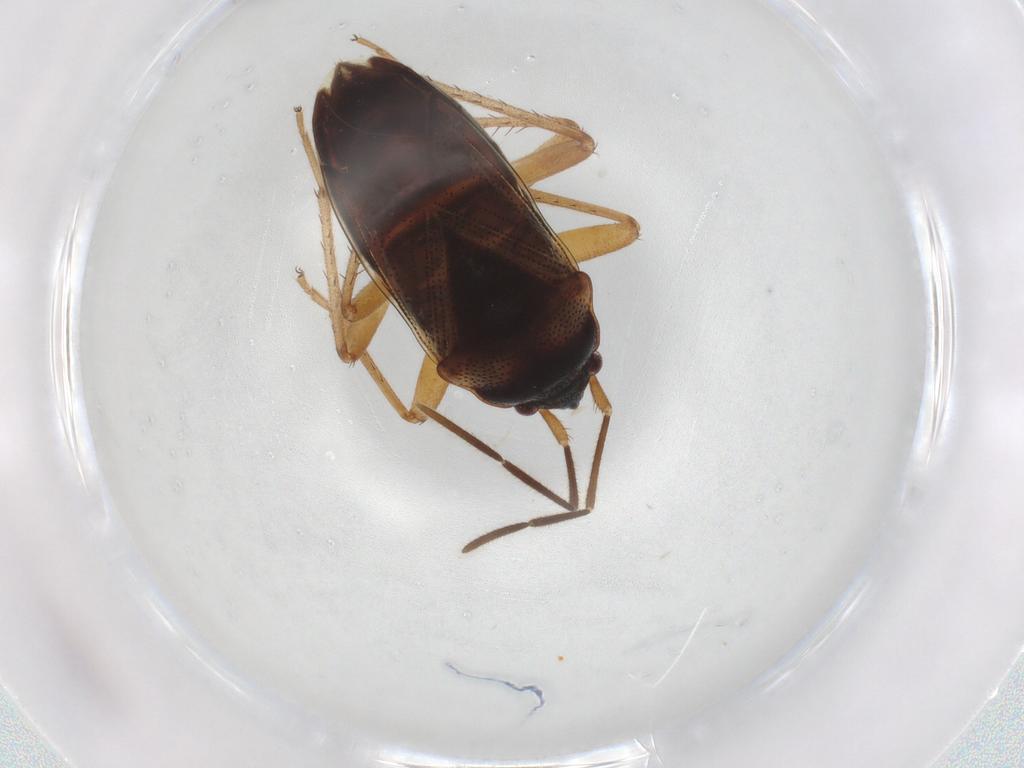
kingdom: Animalia
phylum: Arthropoda
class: Insecta
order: Hemiptera
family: Rhyparochromidae
